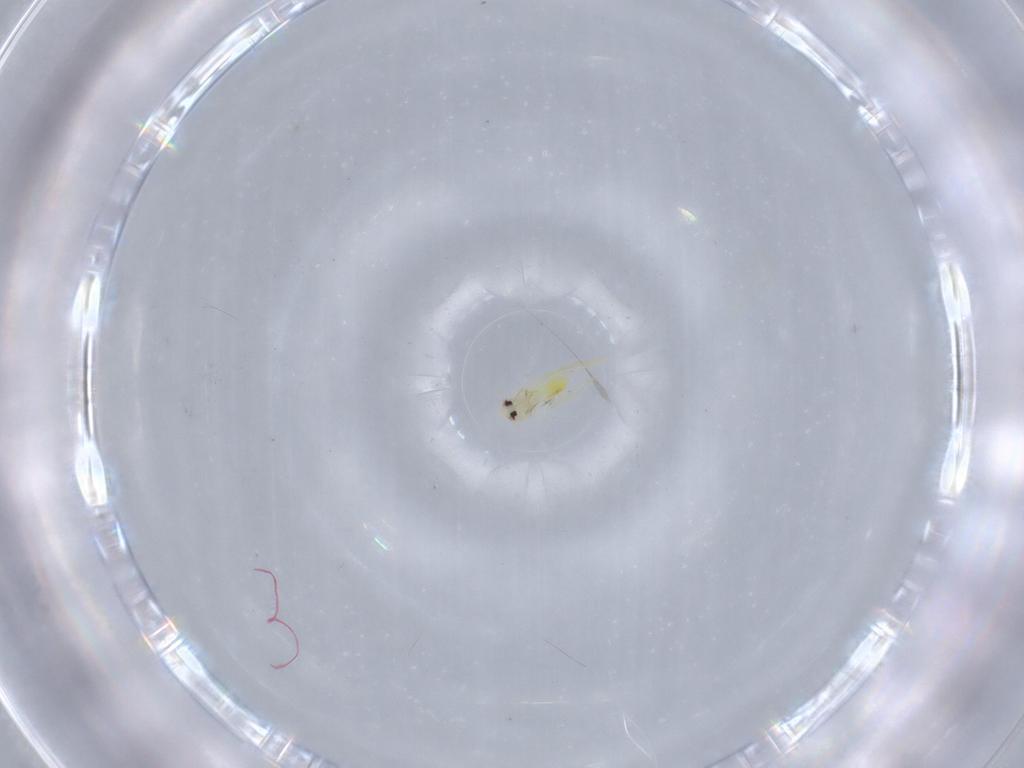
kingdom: Animalia
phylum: Arthropoda
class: Insecta
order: Hemiptera
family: Aleyrodidae
